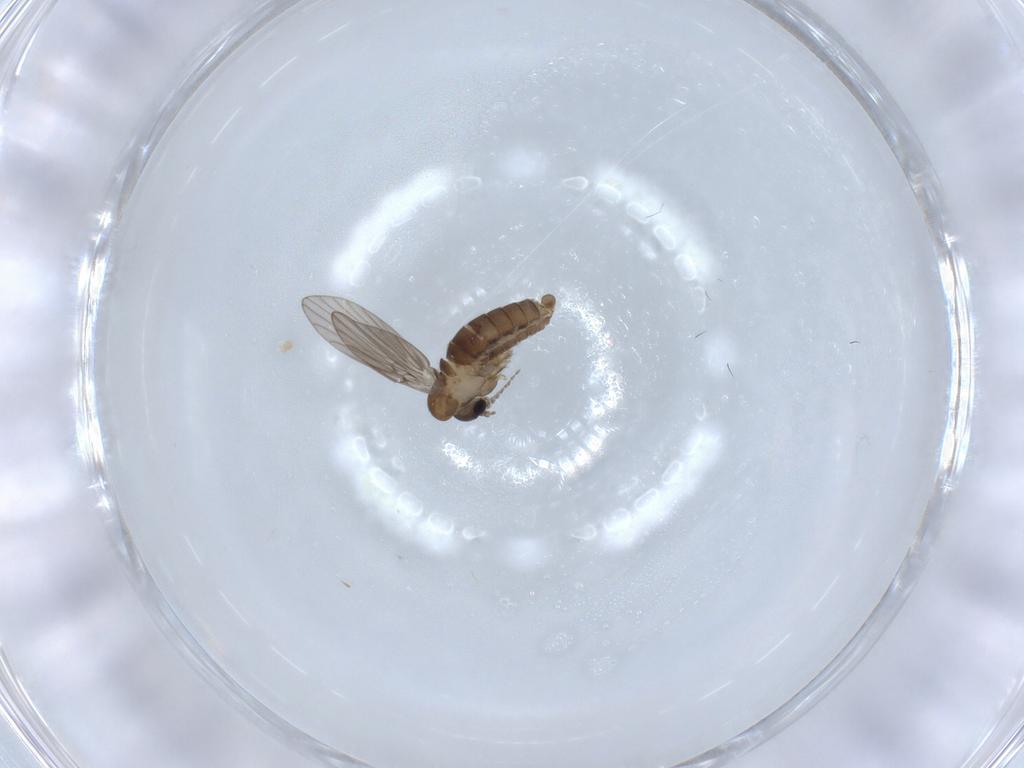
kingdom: Animalia
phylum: Arthropoda
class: Insecta
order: Diptera
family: Psychodidae
